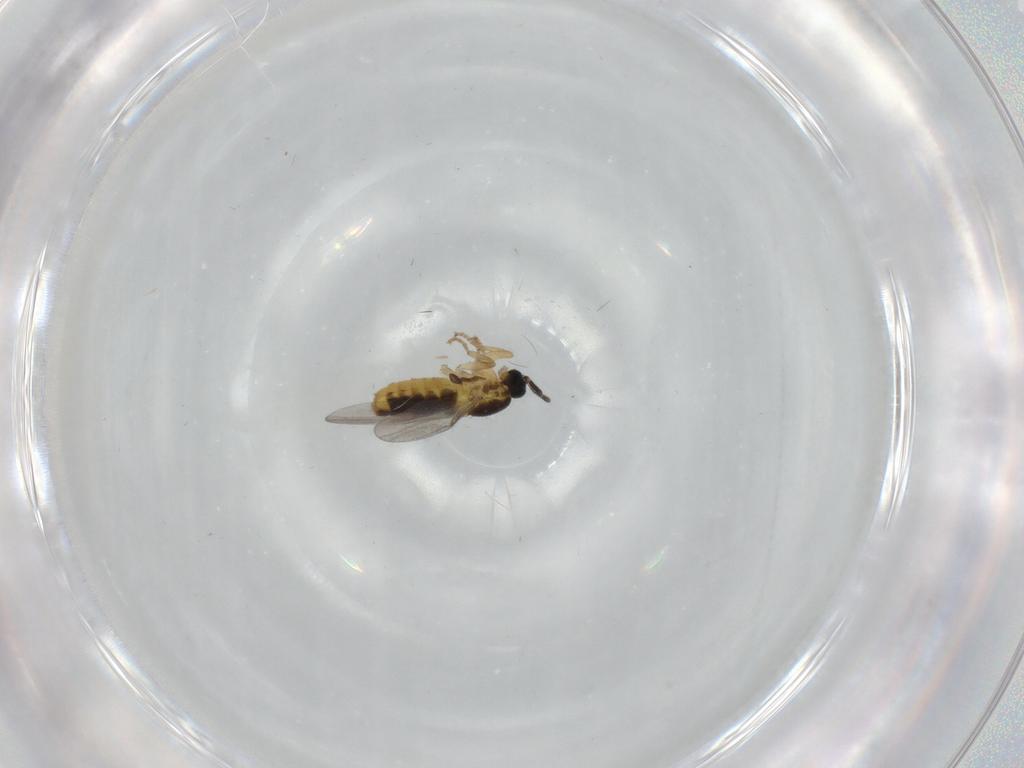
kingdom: Animalia
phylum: Arthropoda
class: Insecta
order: Diptera
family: Scatopsidae
